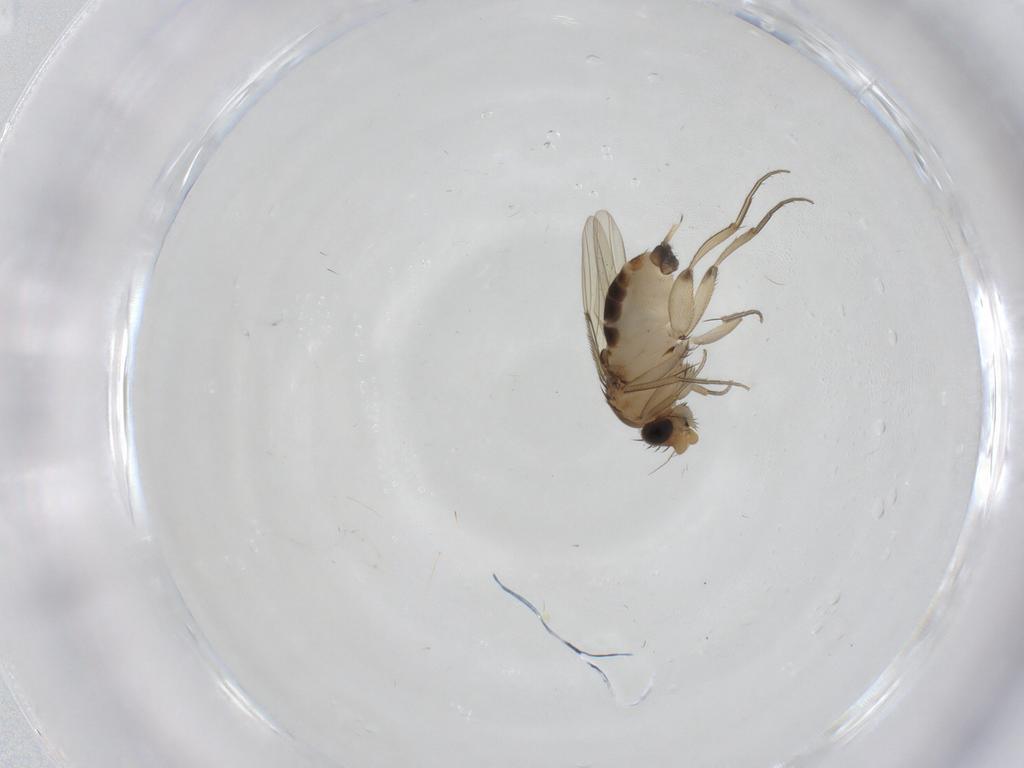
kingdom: Animalia
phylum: Arthropoda
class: Insecta
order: Diptera
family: Phoridae
